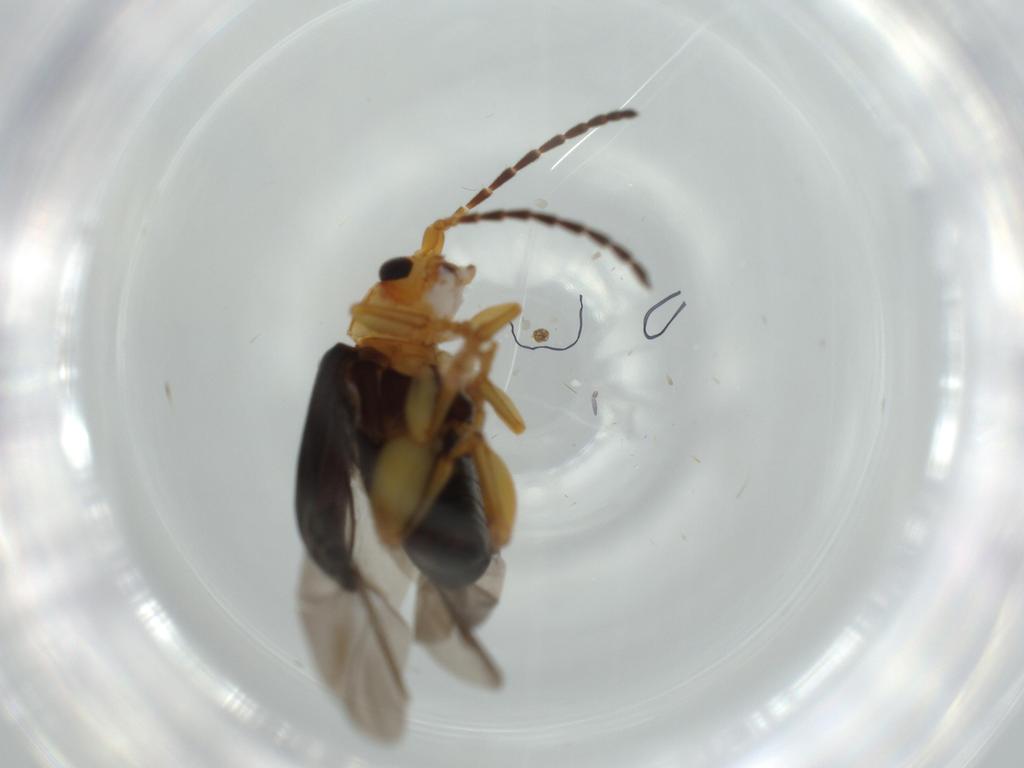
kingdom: Animalia
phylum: Arthropoda
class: Insecta
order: Coleoptera
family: Chrysomelidae
